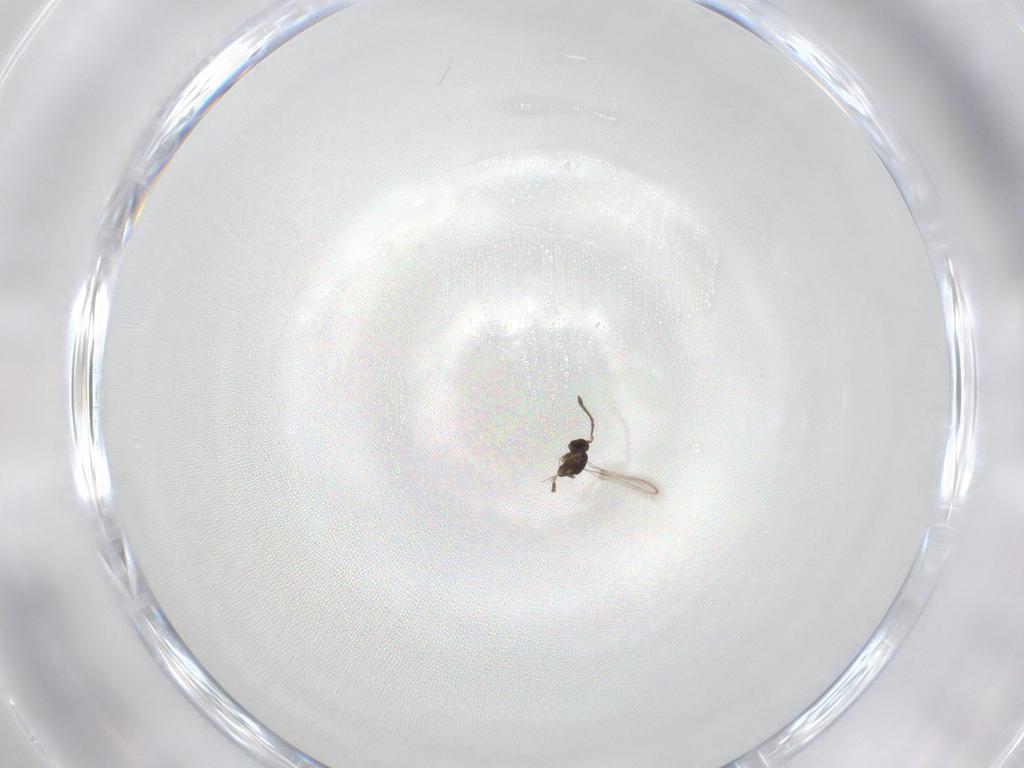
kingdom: Animalia
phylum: Arthropoda
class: Insecta
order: Hymenoptera
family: Mymaridae
